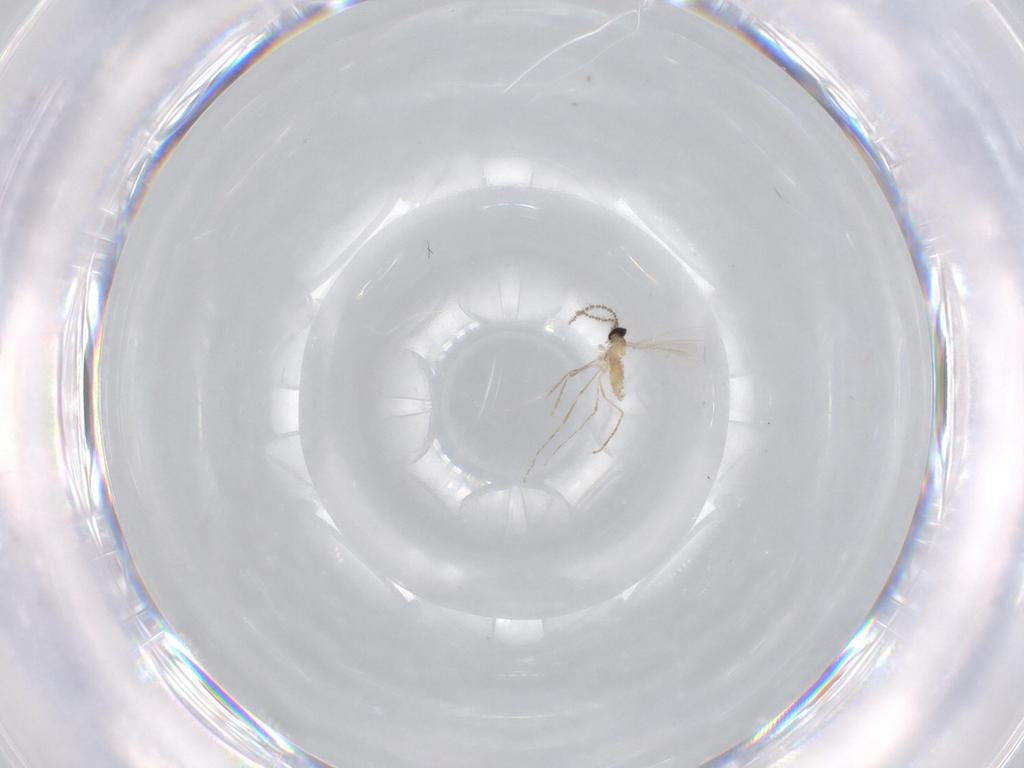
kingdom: Animalia
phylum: Arthropoda
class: Insecta
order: Diptera
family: Cecidomyiidae
